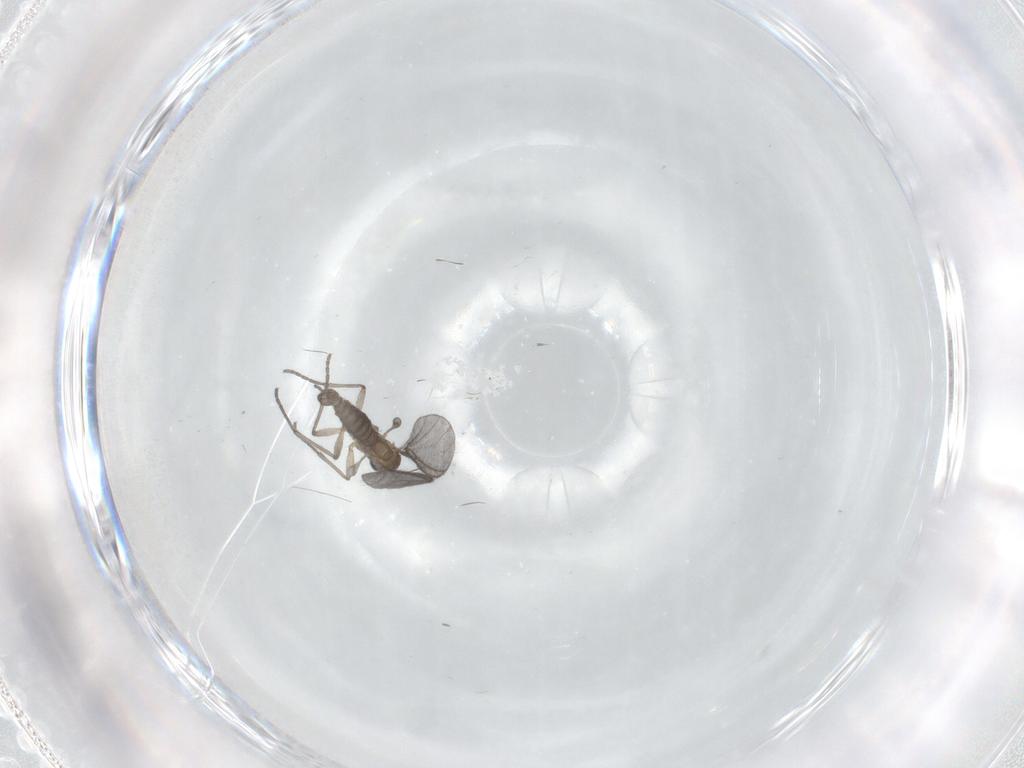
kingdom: Animalia
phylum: Arthropoda
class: Insecta
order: Diptera
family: Sciaridae
